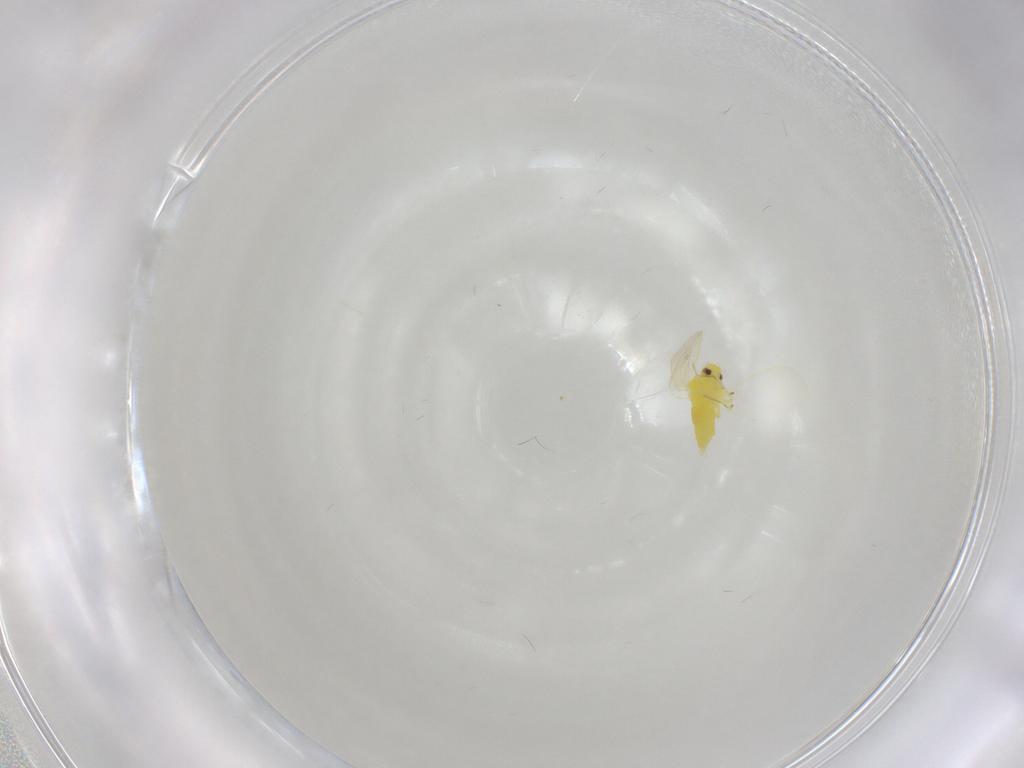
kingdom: Animalia
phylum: Arthropoda
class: Insecta
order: Hemiptera
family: Aleyrodidae
